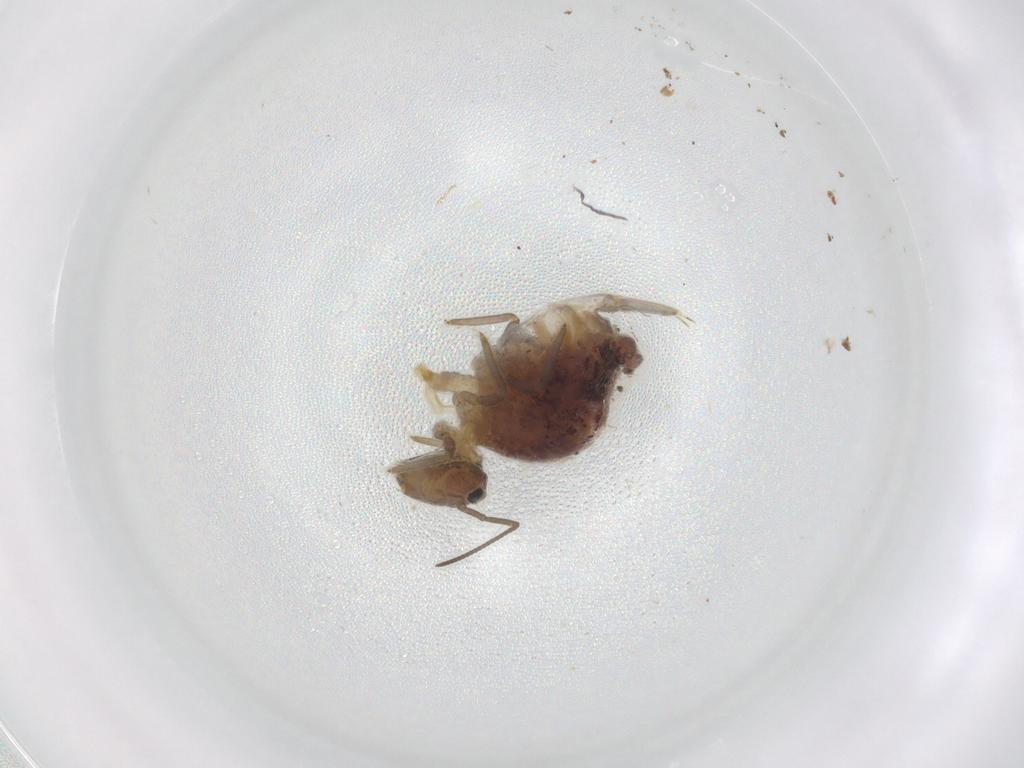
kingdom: Animalia
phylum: Arthropoda
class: Collembola
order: Symphypleona
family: Sminthuridae
